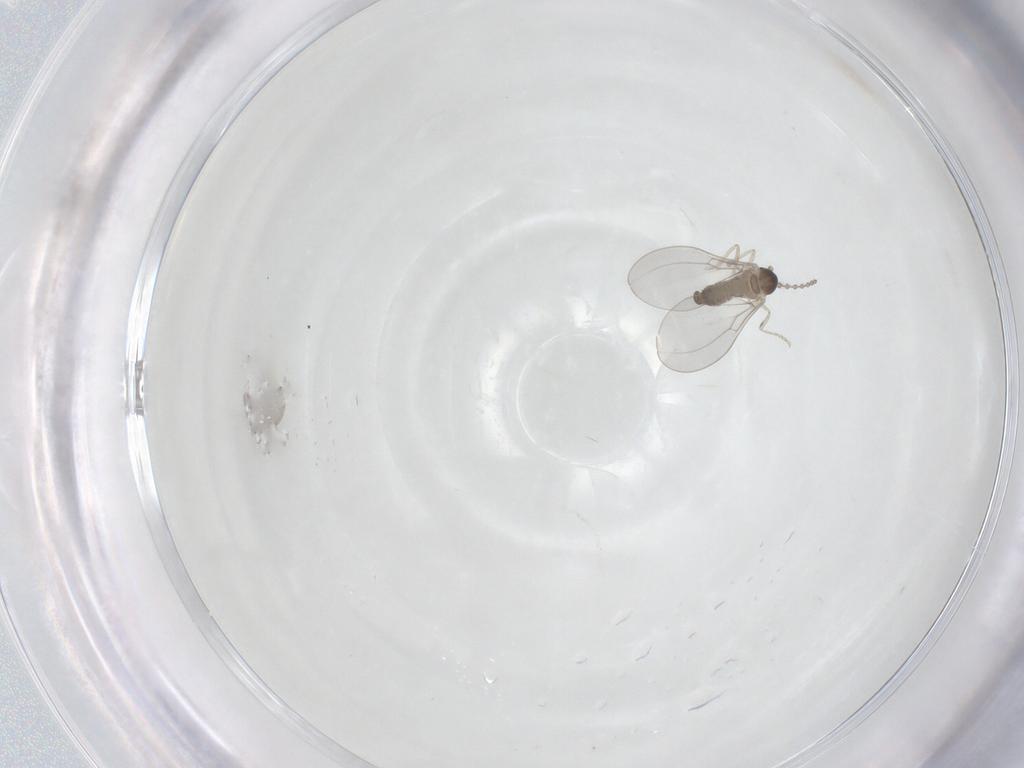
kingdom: Animalia
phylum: Arthropoda
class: Insecta
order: Diptera
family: Cecidomyiidae
